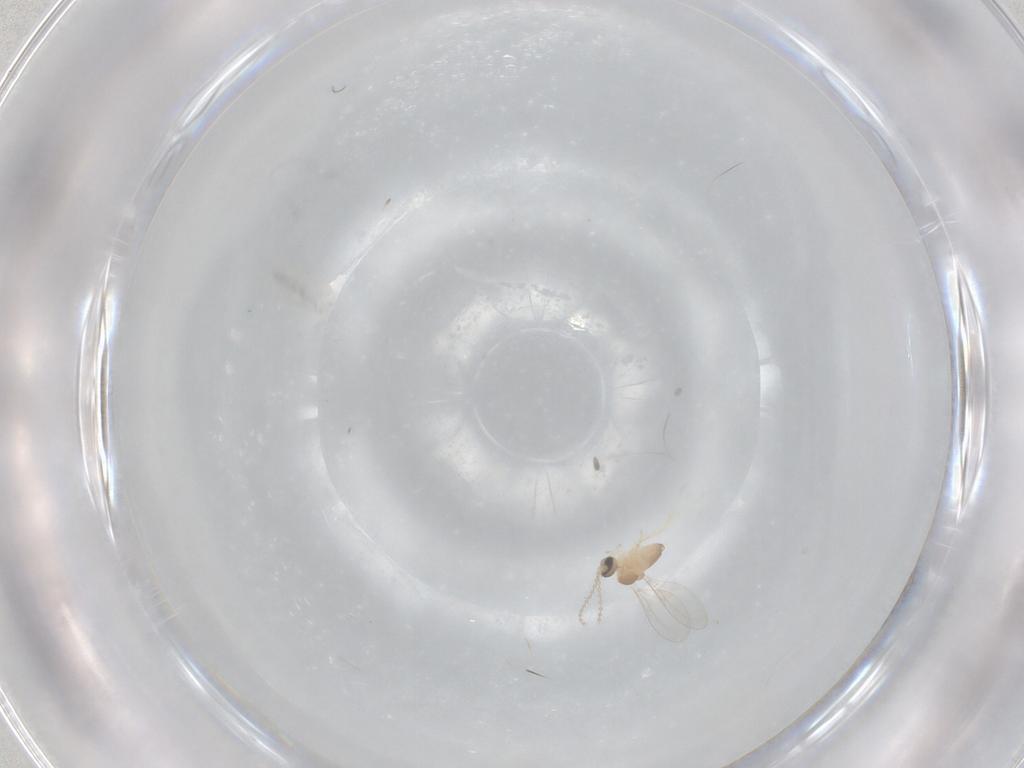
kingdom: Animalia
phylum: Arthropoda
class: Insecta
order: Diptera
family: Cecidomyiidae
